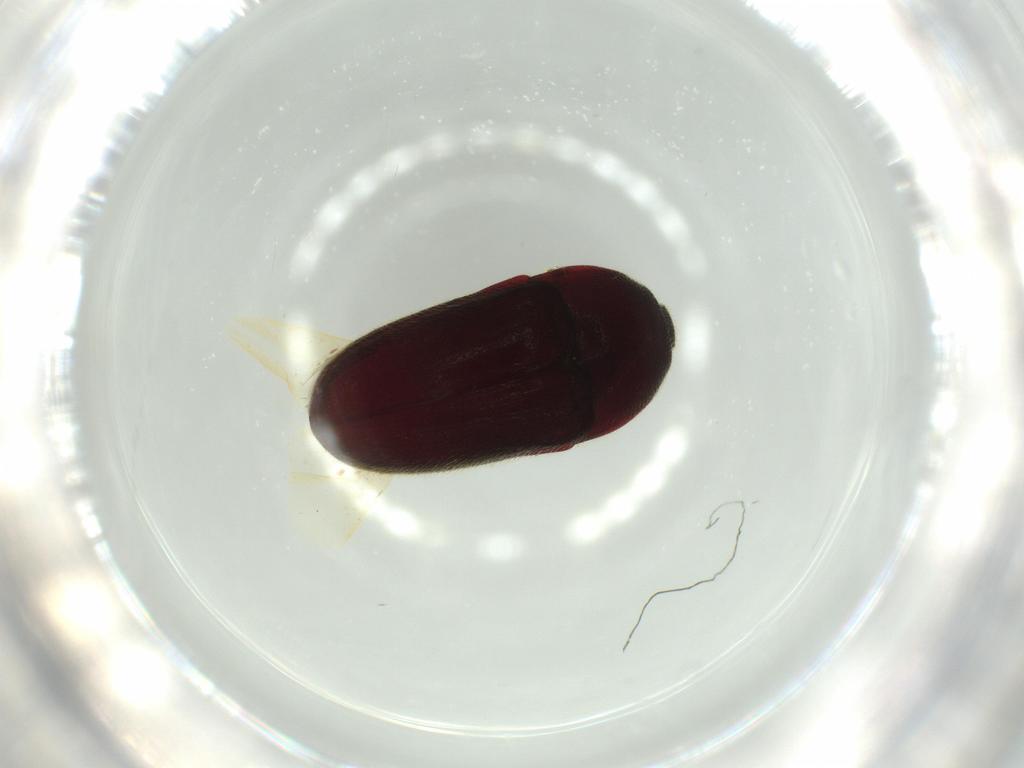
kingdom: Animalia
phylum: Arthropoda
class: Insecta
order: Coleoptera
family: Throscidae
